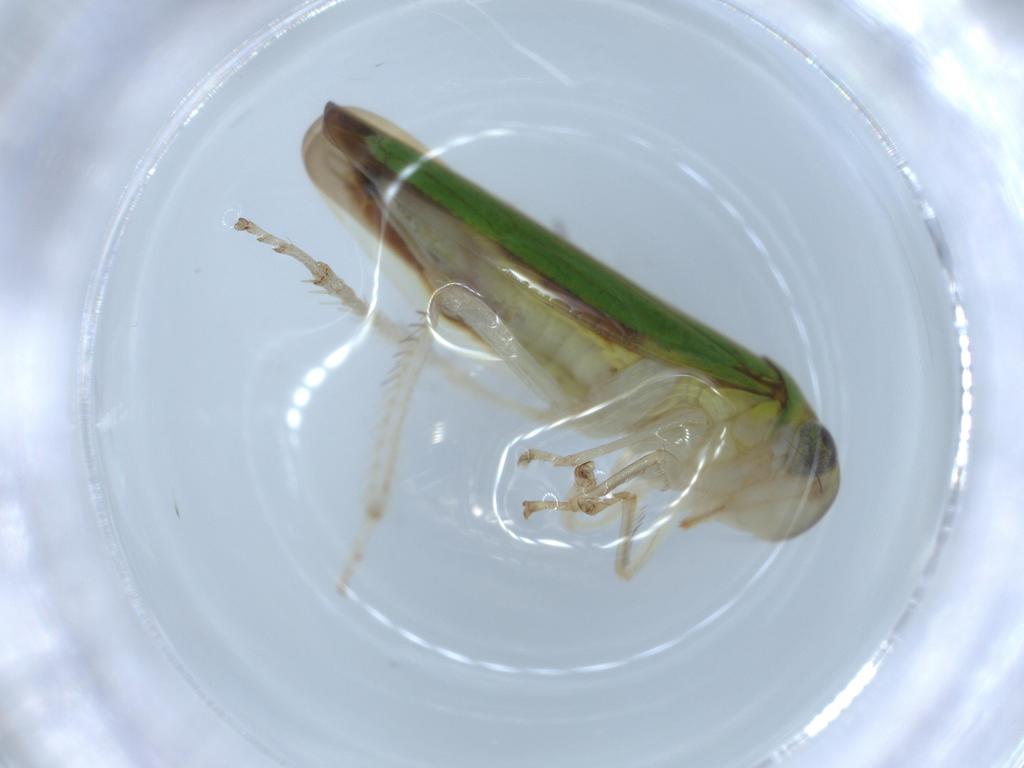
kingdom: Animalia
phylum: Arthropoda
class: Insecta
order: Hemiptera
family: Cicadellidae
